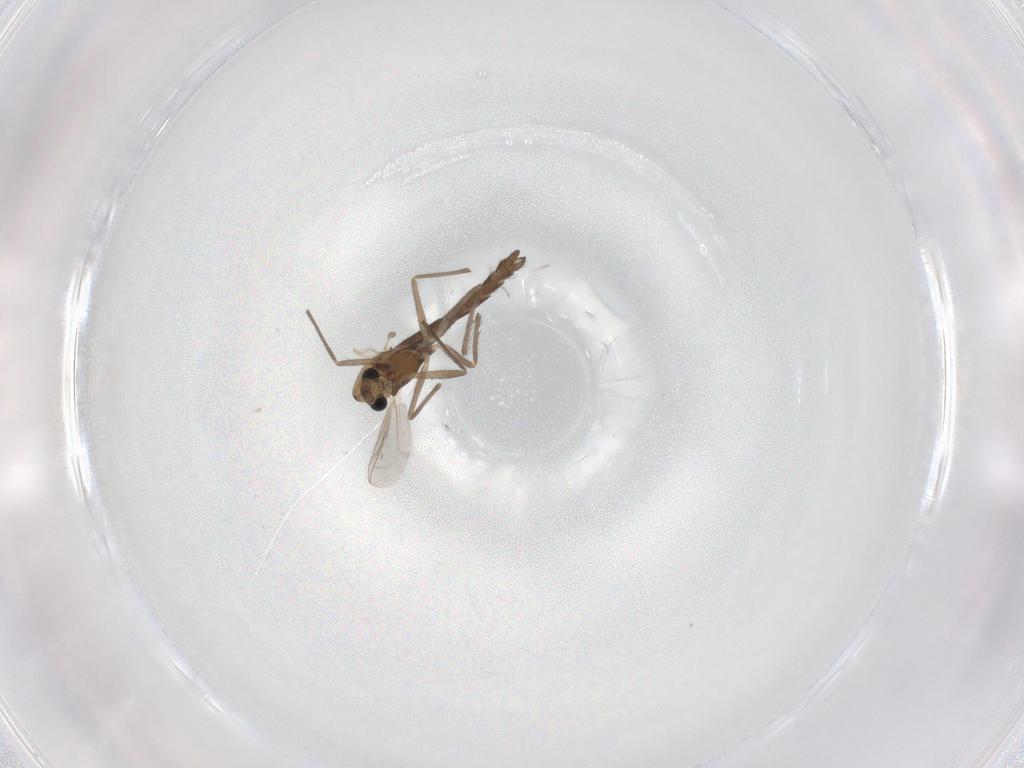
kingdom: Animalia
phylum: Arthropoda
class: Insecta
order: Diptera
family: Chironomidae
